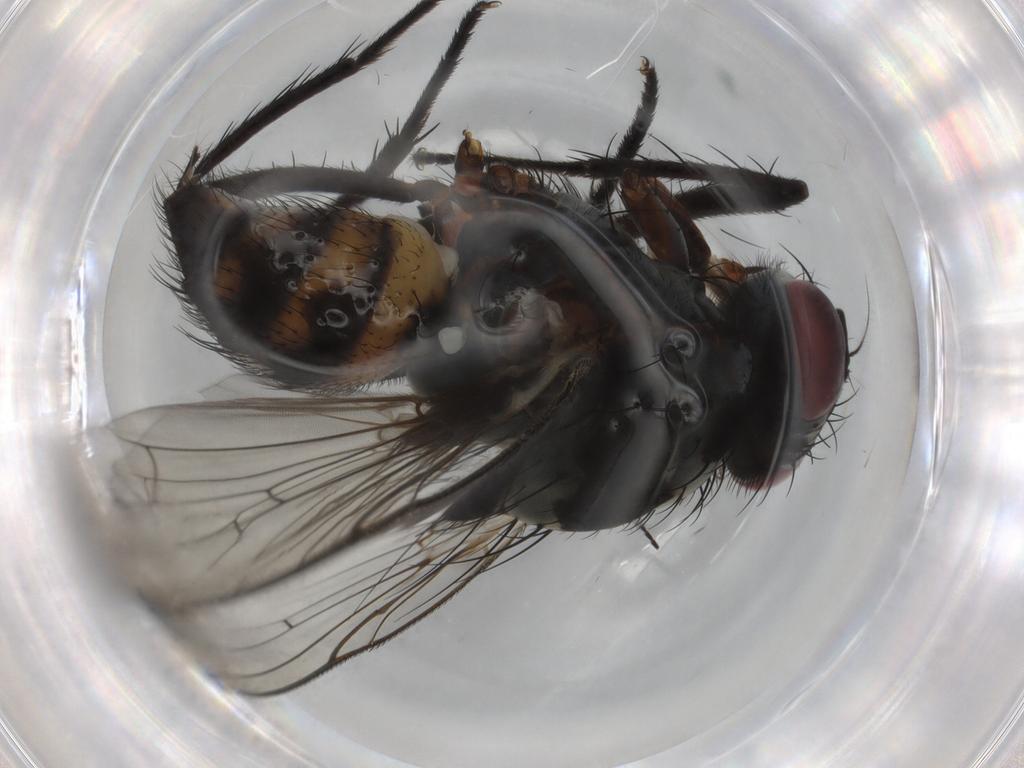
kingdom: Animalia
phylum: Arthropoda
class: Insecta
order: Diptera
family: Anthomyiidae
